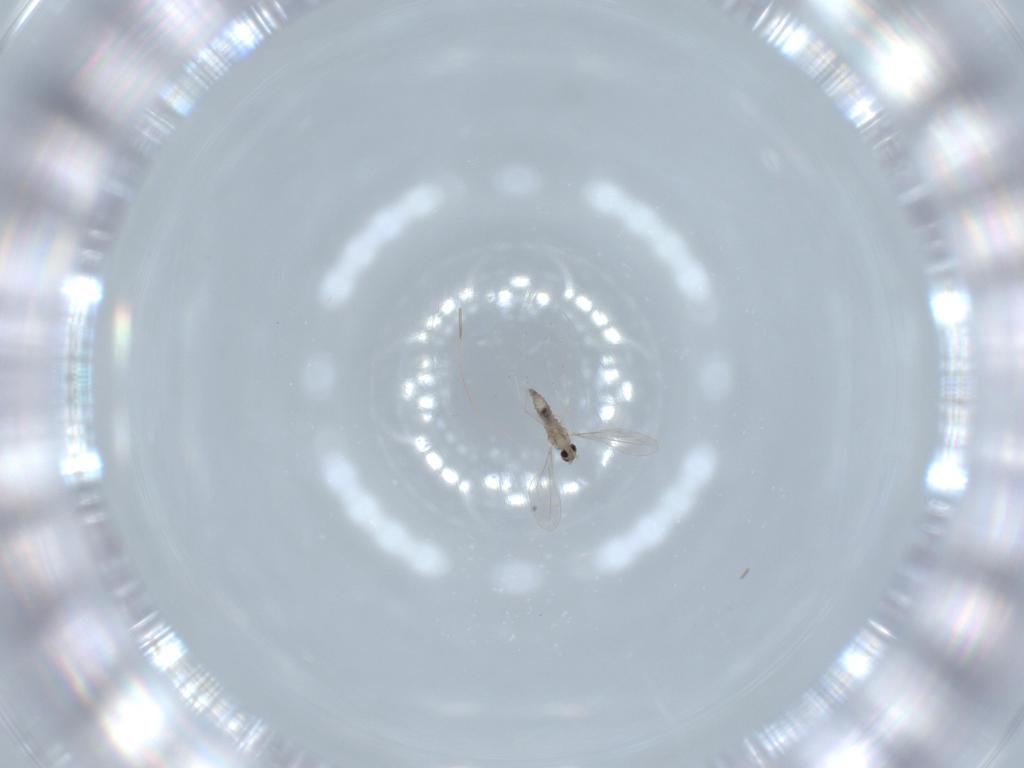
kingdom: Animalia
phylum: Arthropoda
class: Insecta
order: Diptera
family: Cecidomyiidae
